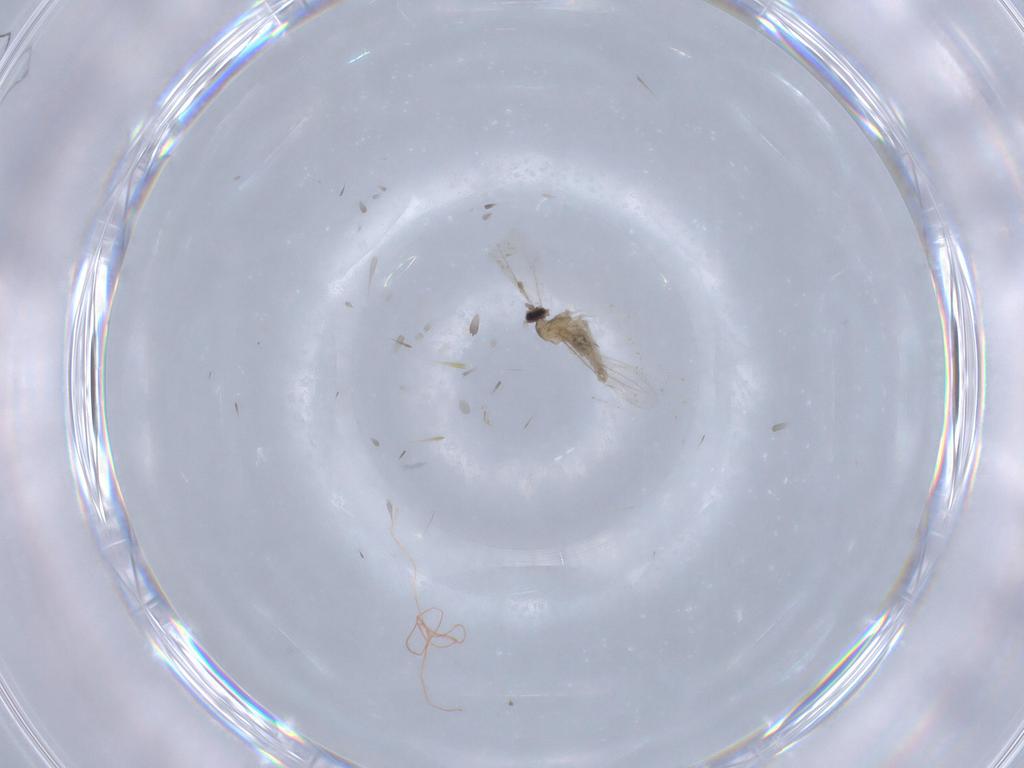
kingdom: Animalia
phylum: Arthropoda
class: Insecta
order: Diptera
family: Cecidomyiidae
